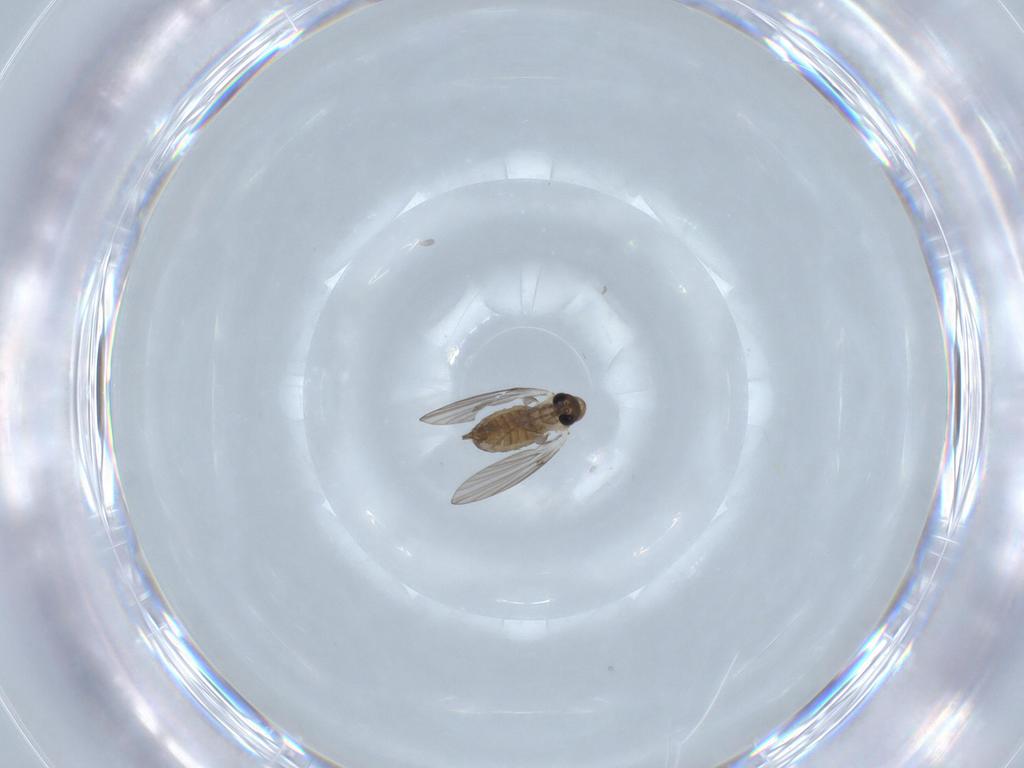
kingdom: Animalia
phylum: Arthropoda
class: Insecta
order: Diptera
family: Psychodidae
